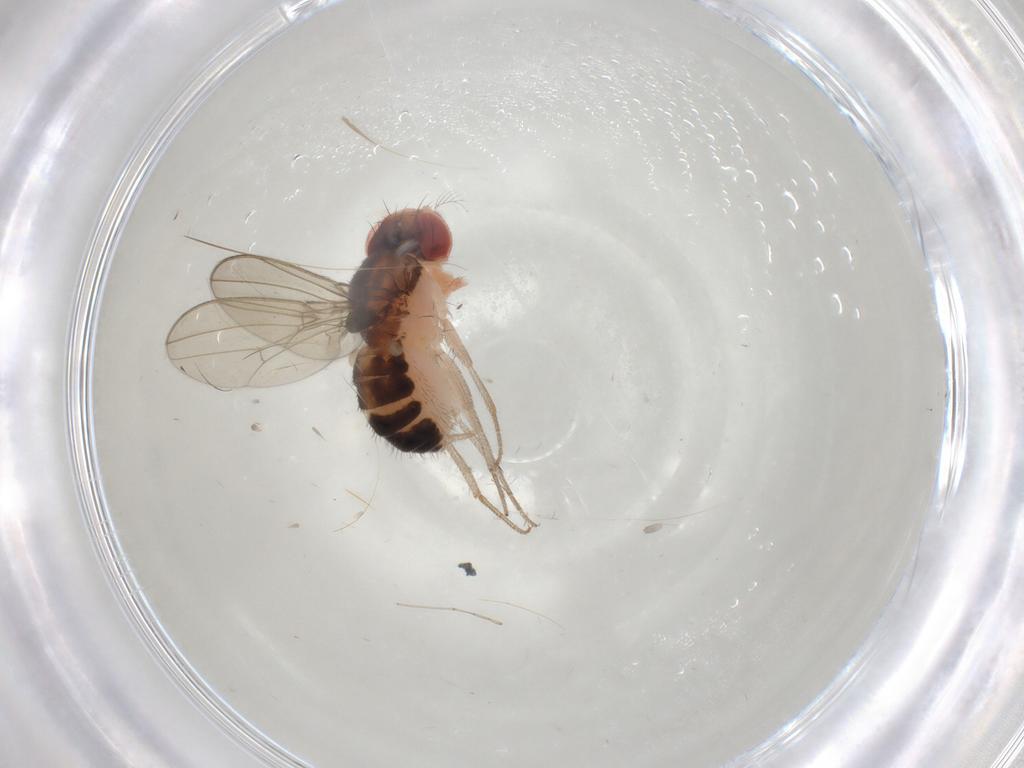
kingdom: Animalia
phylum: Arthropoda
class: Insecta
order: Diptera
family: Drosophilidae
